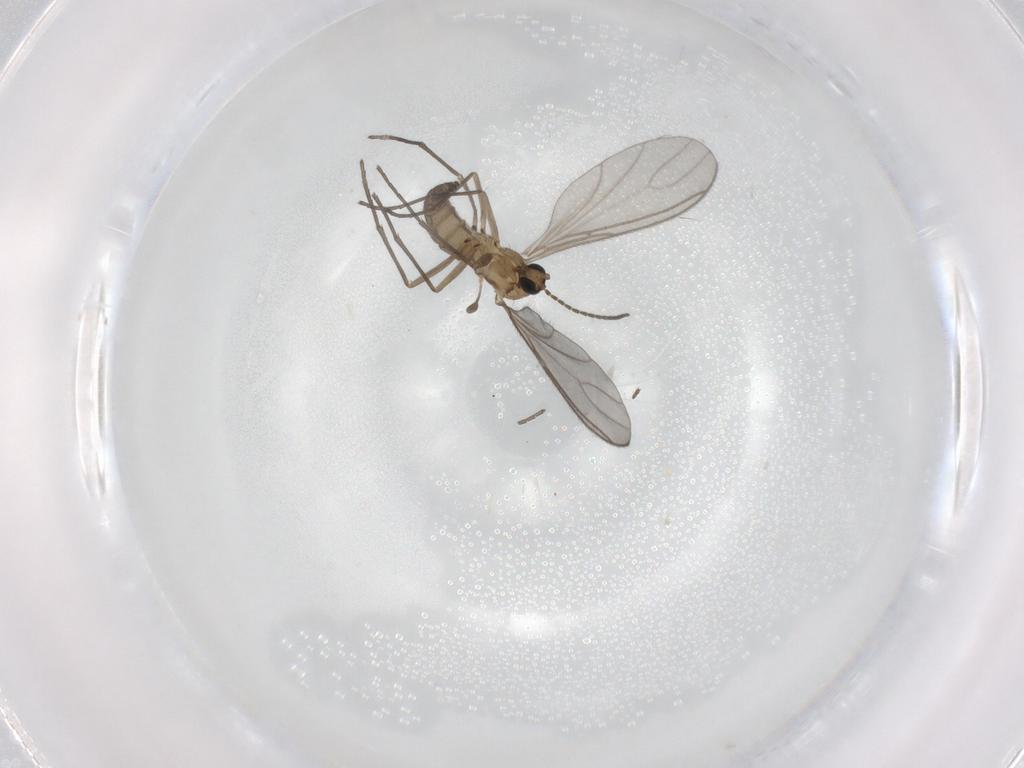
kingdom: Animalia
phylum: Arthropoda
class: Insecta
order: Diptera
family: Sciaridae
